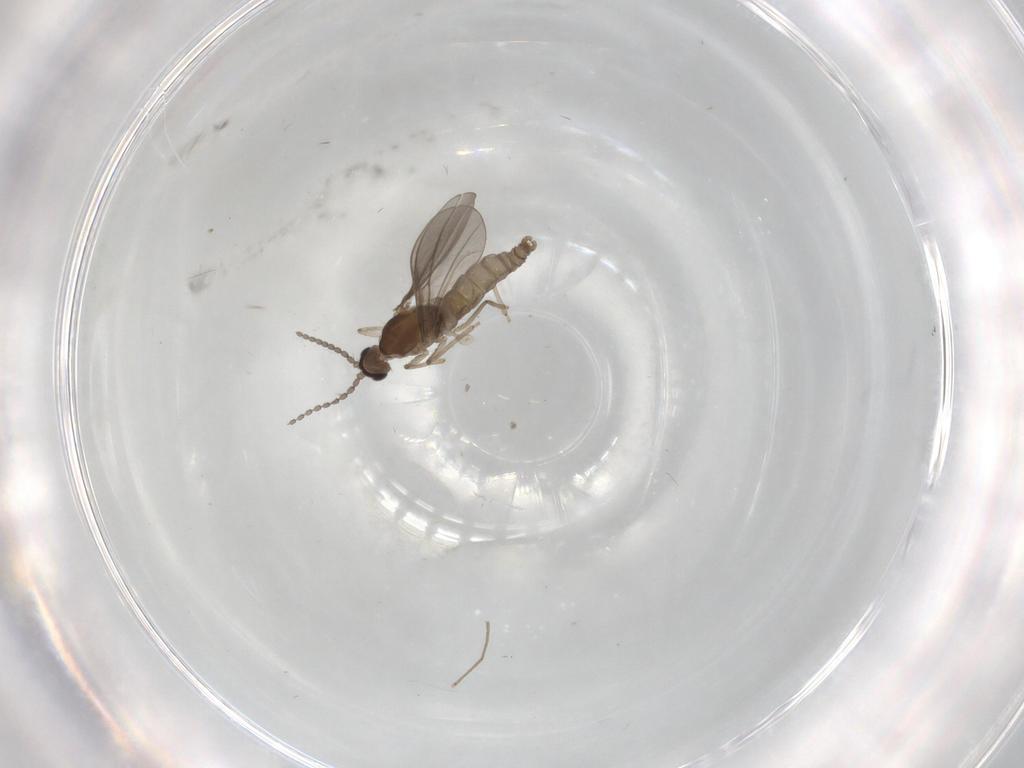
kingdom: Animalia
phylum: Arthropoda
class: Insecta
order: Diptera
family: Cecidomyiidae
